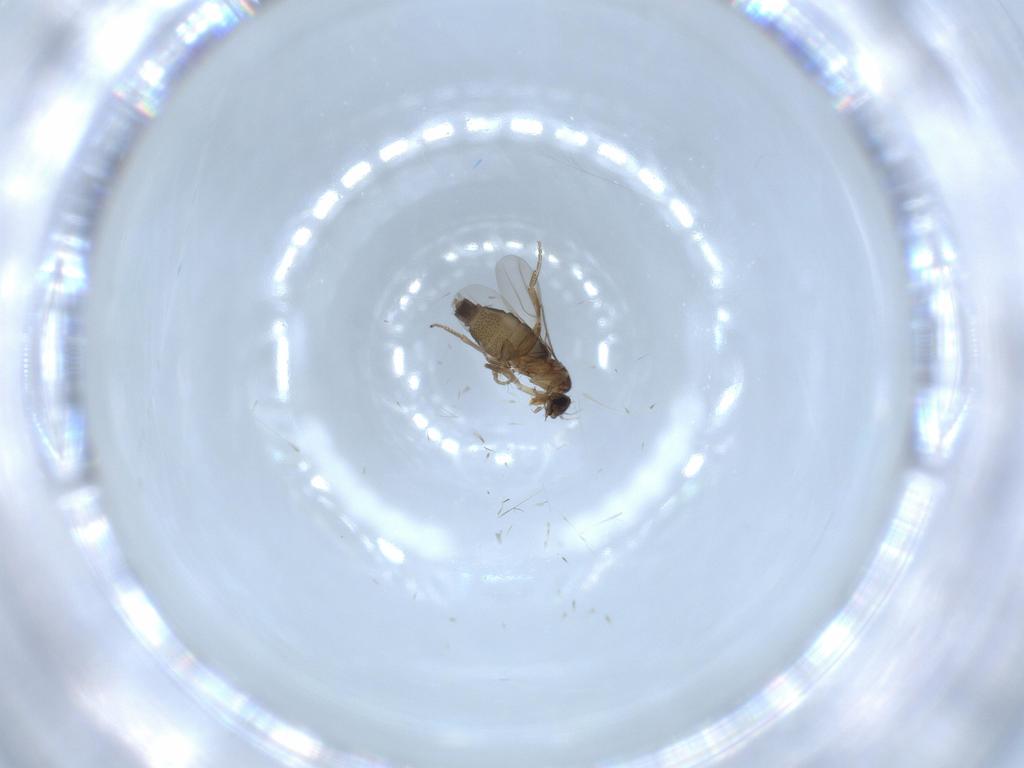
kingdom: Animalia
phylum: Arthropoda
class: Insecta
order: Diptera
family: Phoridae
